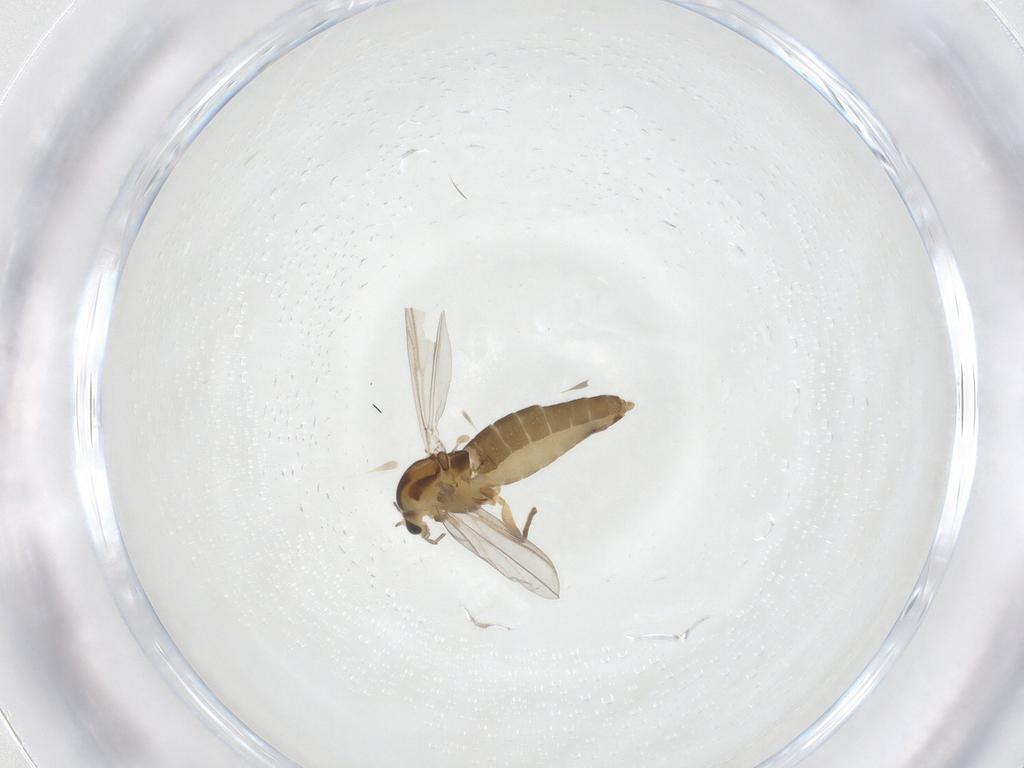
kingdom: Animalia
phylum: Arthropoda
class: Insecta
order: Diptera
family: Chironomidae
